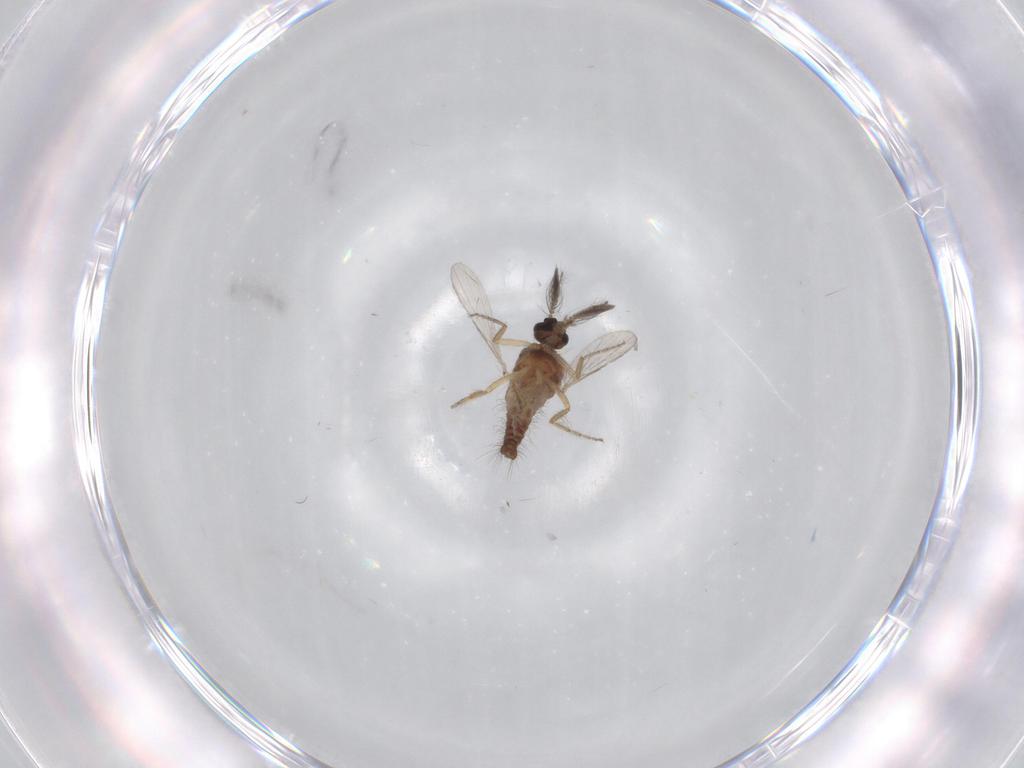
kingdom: Animalia
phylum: Arthropoda
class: Insecta
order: Diptera
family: Ceratopogonidae
